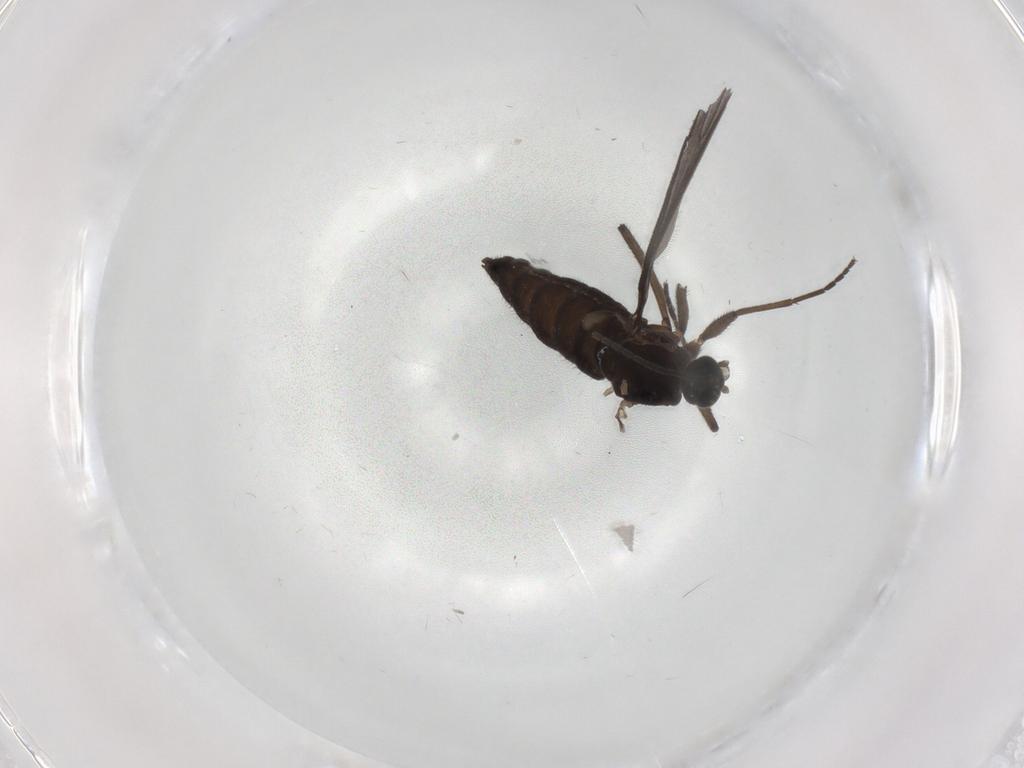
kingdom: Animalia
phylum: Arthropoda
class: Insecta
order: Diptera
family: Sciaridae
